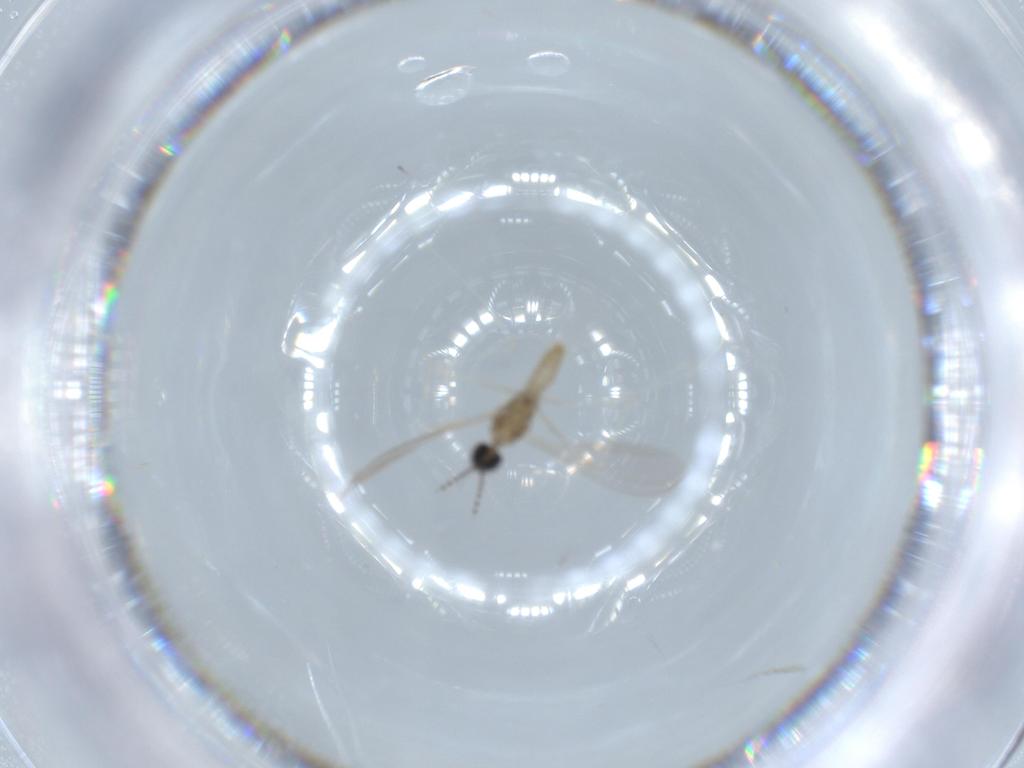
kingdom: Animalia
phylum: Arthropoda
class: Insecta
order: Diptera
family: Cecidomyiidae
